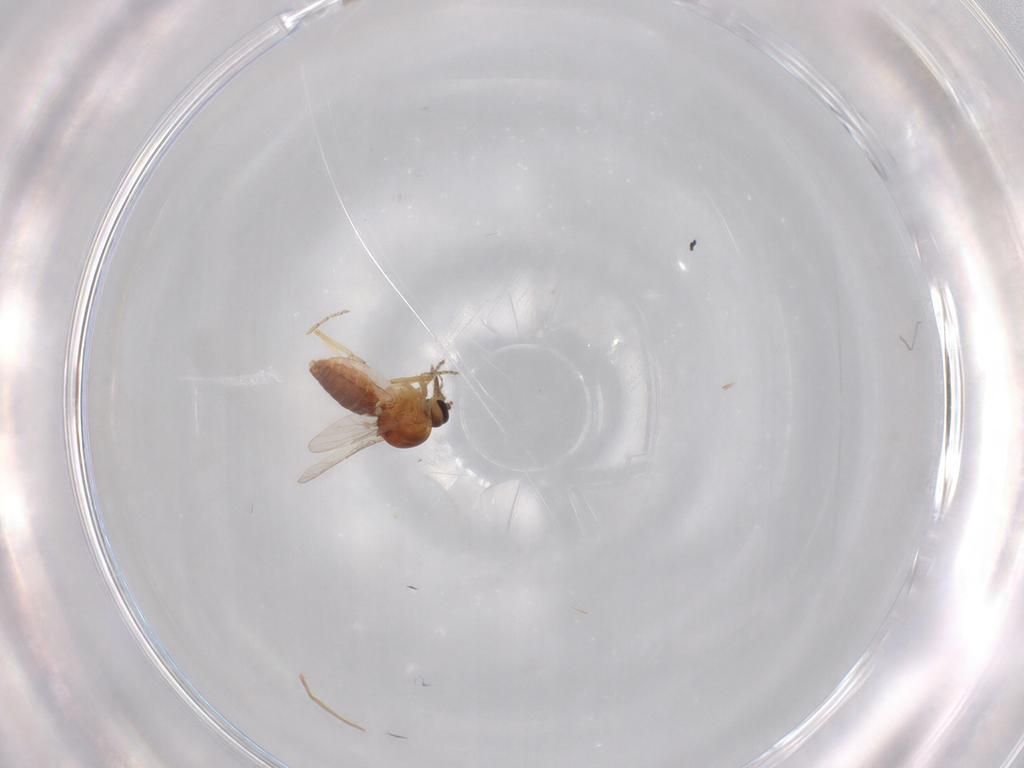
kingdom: Animalia
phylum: Arthropoda
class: Insecta
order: Diptera
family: Ceratopogonidae
